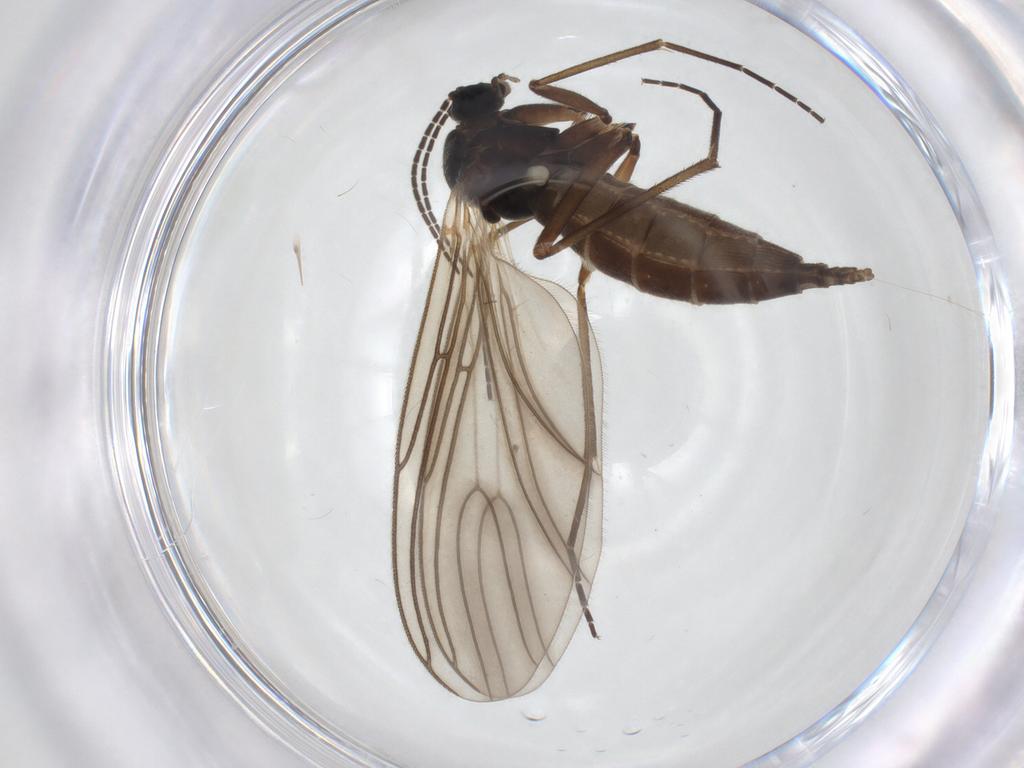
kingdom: Animalia
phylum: Arthropoda
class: Insecta
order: Diptera
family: Sciaridae
